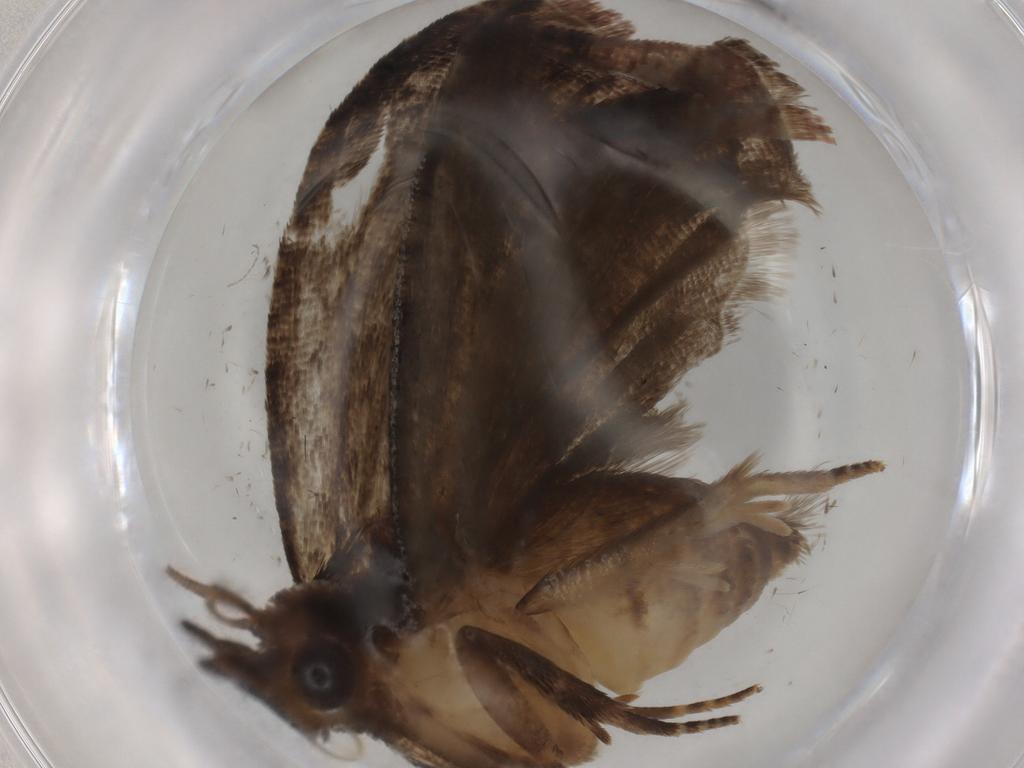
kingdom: Animalia
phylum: Arthropoda
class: Insecta
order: Lepidoptera
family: Tortricidae
